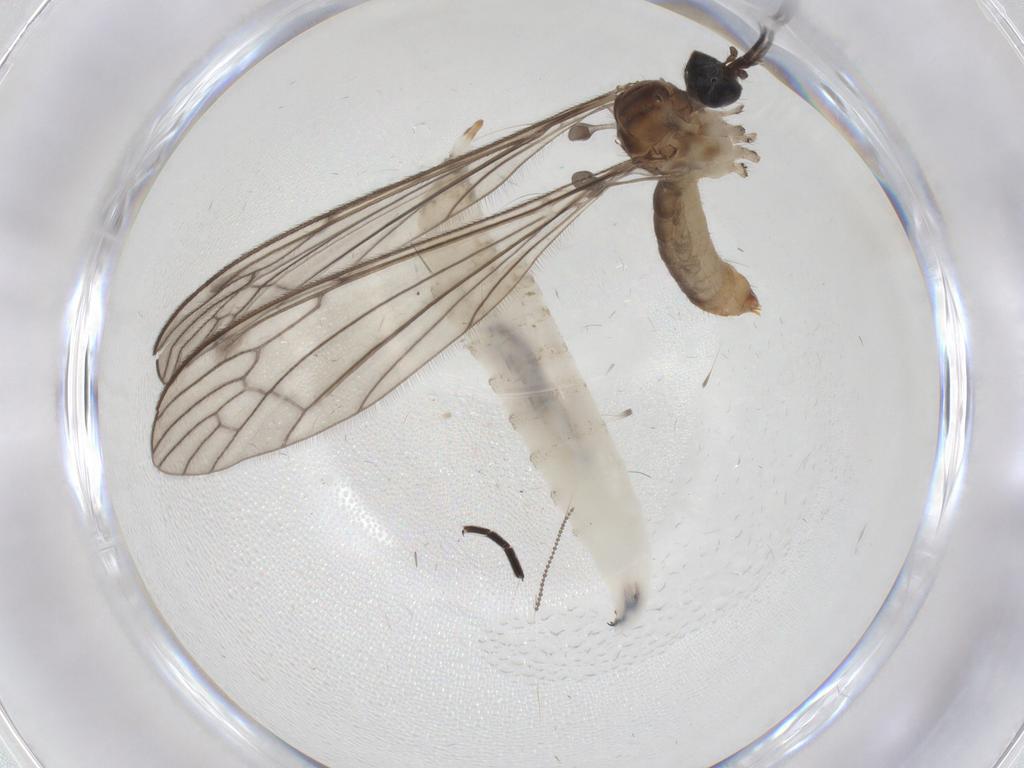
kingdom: Animalia
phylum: Arthropoda
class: Insecta
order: Diptera
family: Limoniidae
